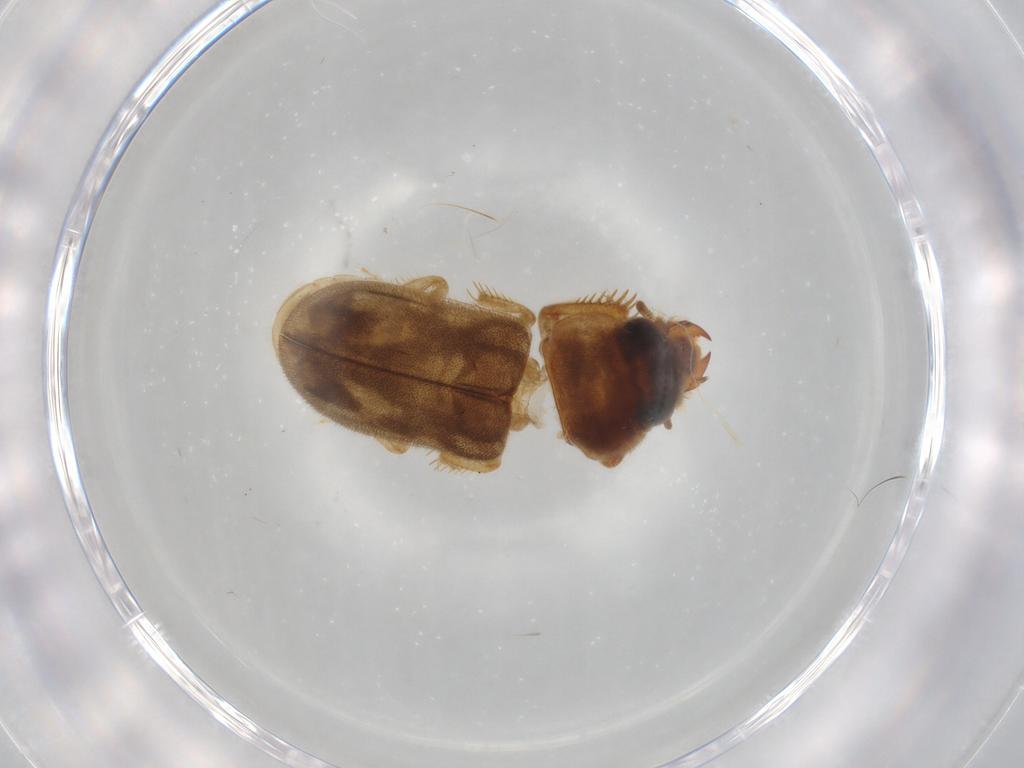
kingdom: Animalia
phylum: Arthropoda
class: Insecta
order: Coleoptera
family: Heteroceridae
